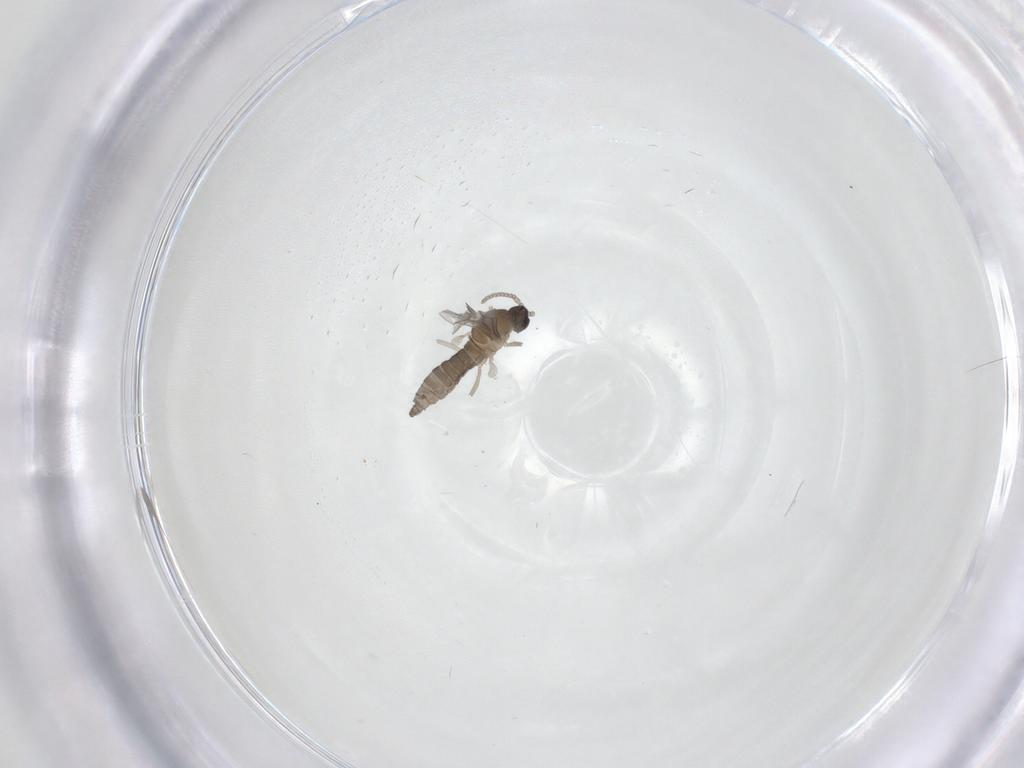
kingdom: Animalia
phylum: Arthropoda
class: Insecta
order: Diptera
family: Cecidomyiidae
